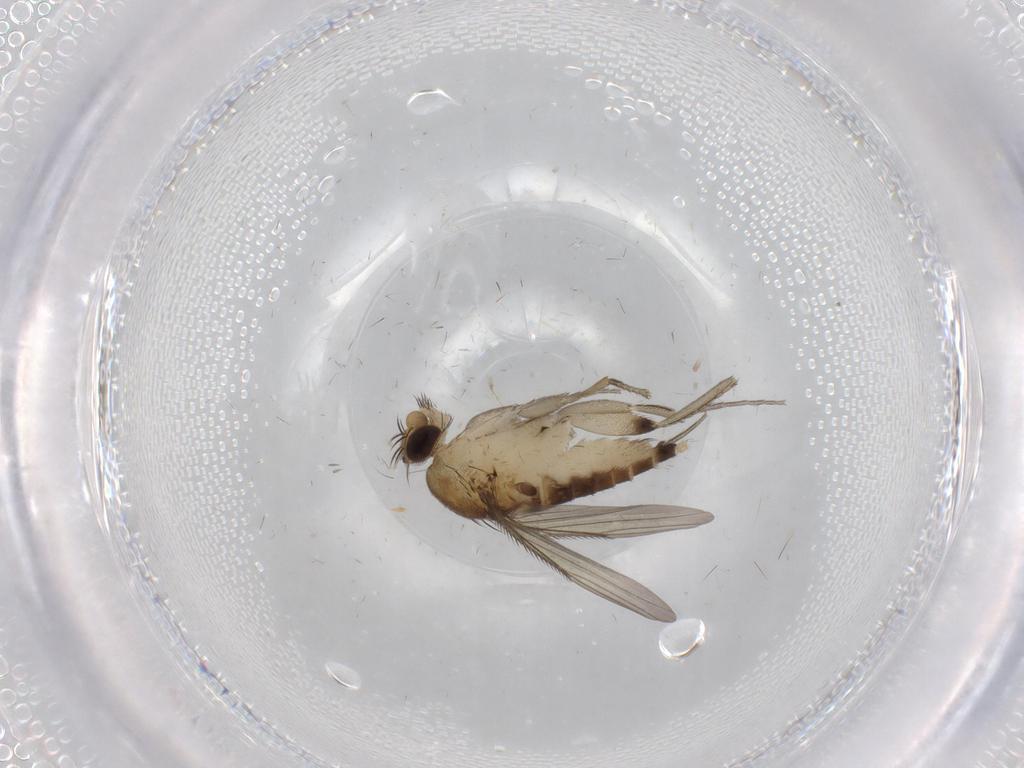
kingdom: Animalia
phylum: Arthropoda
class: Insecta
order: Diptera
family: Phoridae
